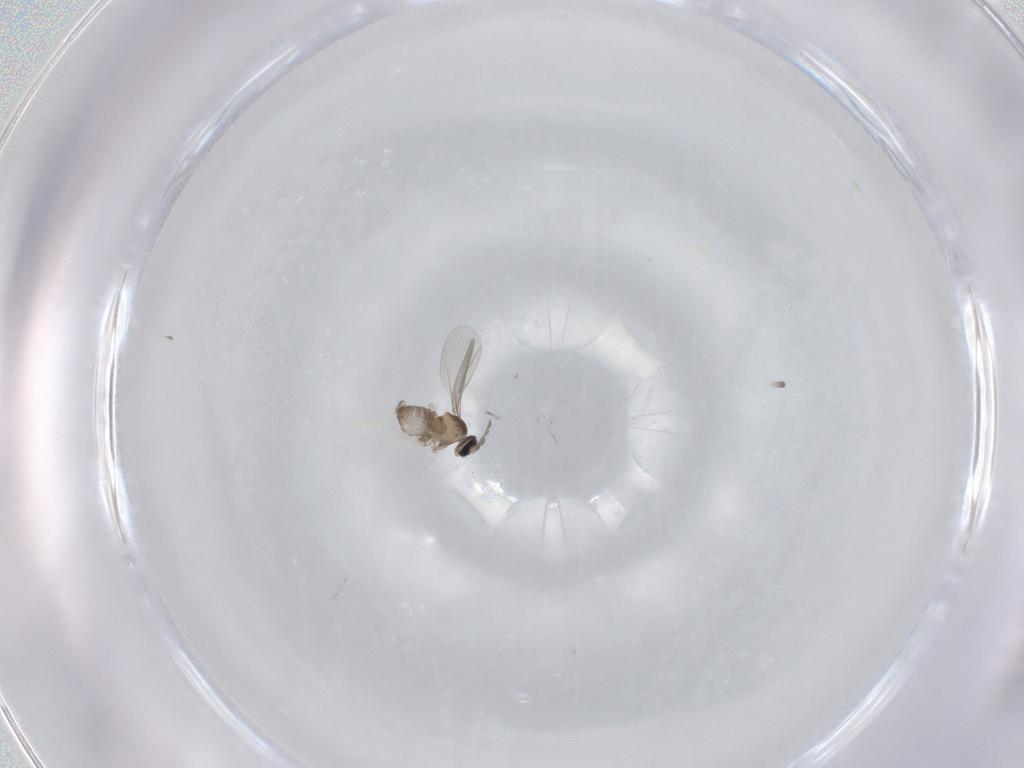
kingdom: Animalia
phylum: Arthropoda
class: Insecta
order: Diptera
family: Cecidomyiidae
